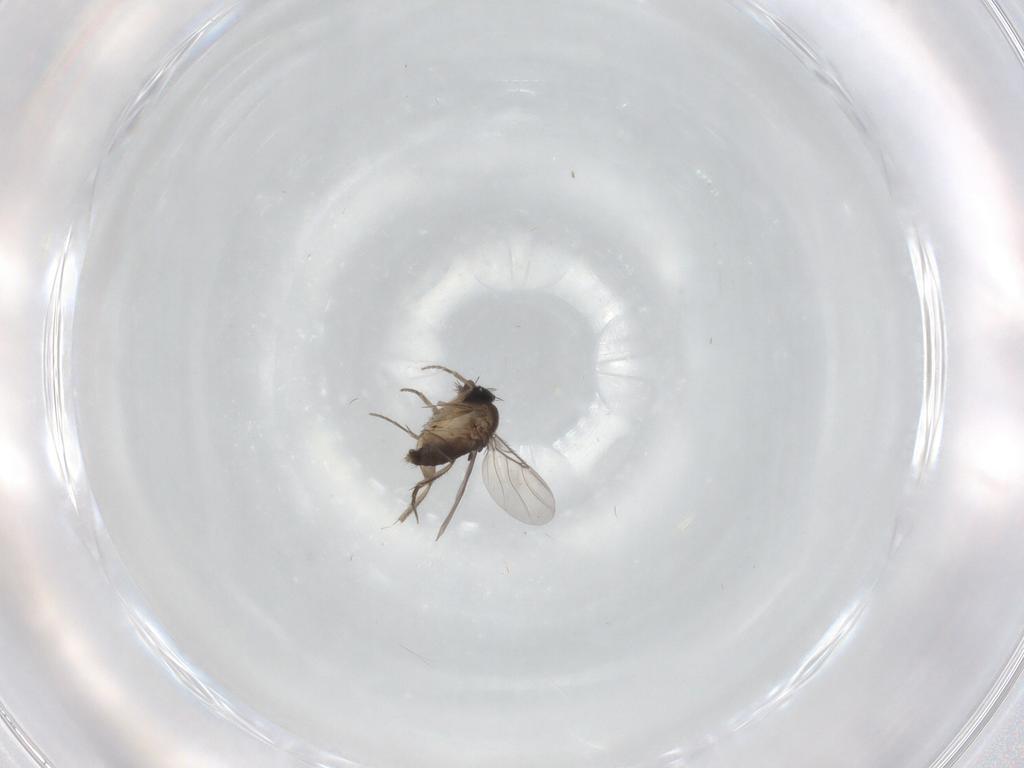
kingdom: Animalia
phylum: Arthropoda
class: Insecta
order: Diptera
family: Phoridae
